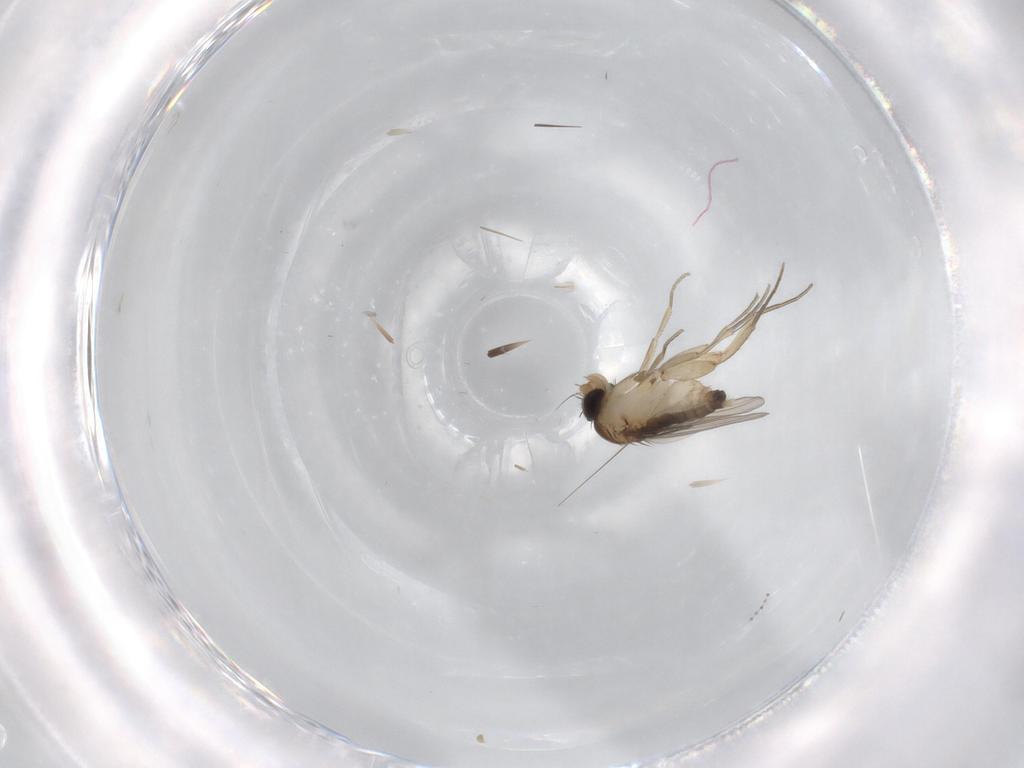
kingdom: Animalia
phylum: Arthropoda
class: Insecta
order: Diptera
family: Phoridae
